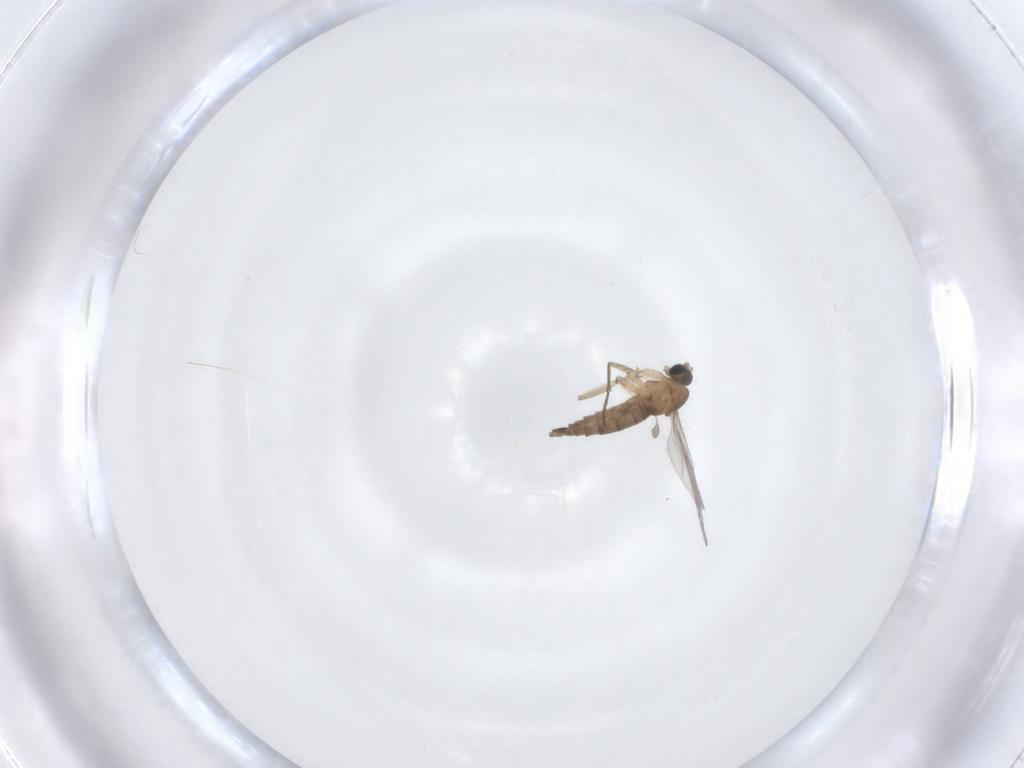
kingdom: Animalia
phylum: Arthropoda
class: Insecta
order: Diptera
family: Sciaridae
